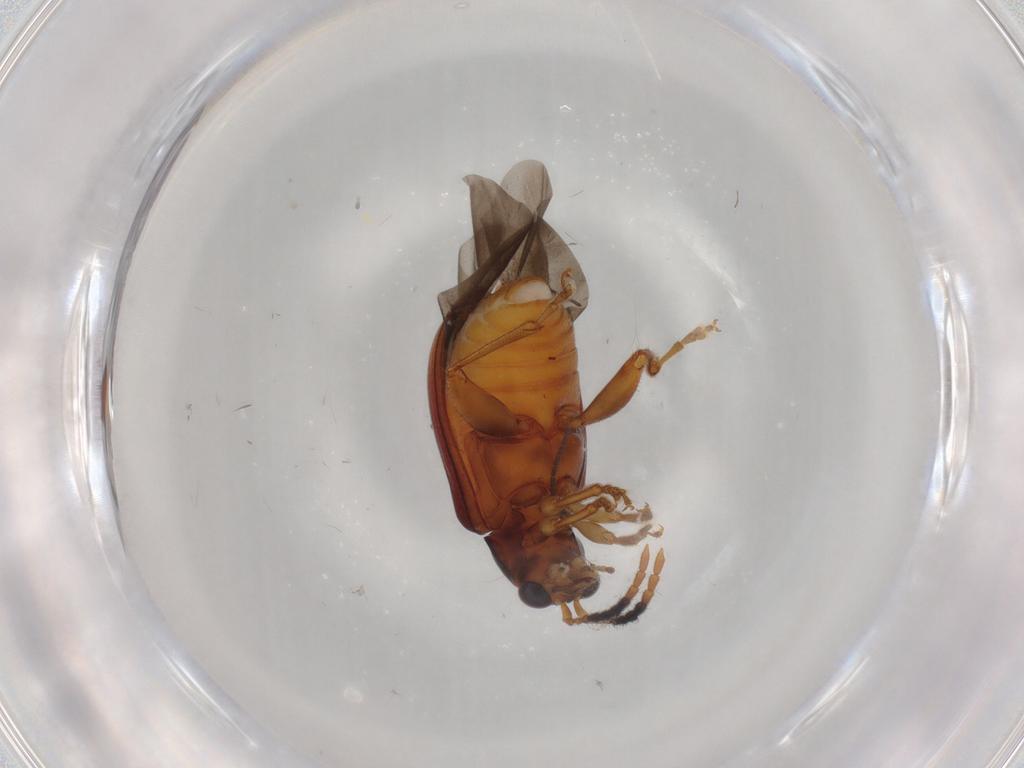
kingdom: Animalia
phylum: Arthropoda
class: Insecta
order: Coleoptera
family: Chrysomelidae
